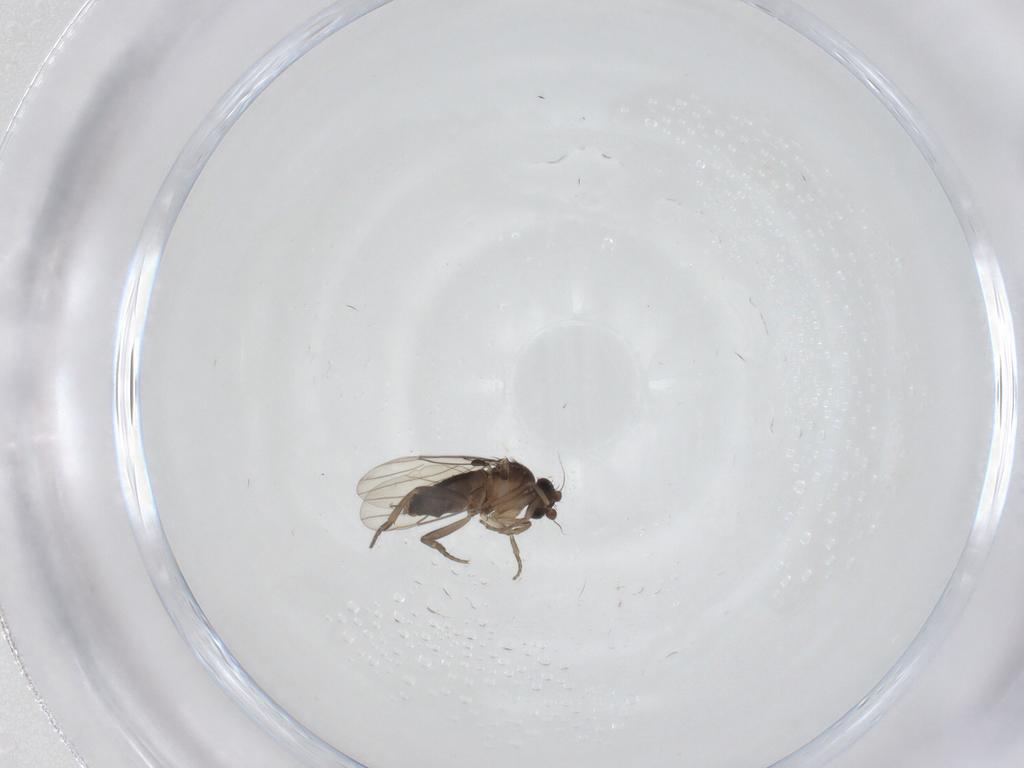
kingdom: Animalia
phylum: Arthropoda
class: Insecta
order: Diptera
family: Phoridae
